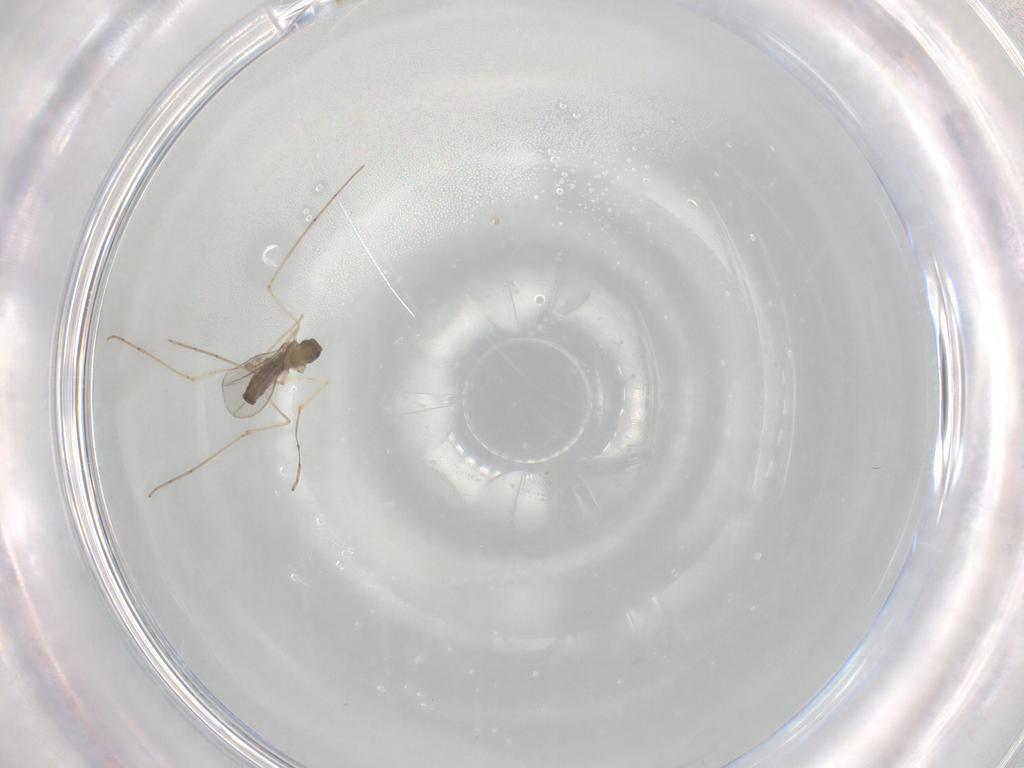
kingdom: Animalia
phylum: Arthropoda
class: Insecta
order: Diptera
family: Cecidomyiidae
